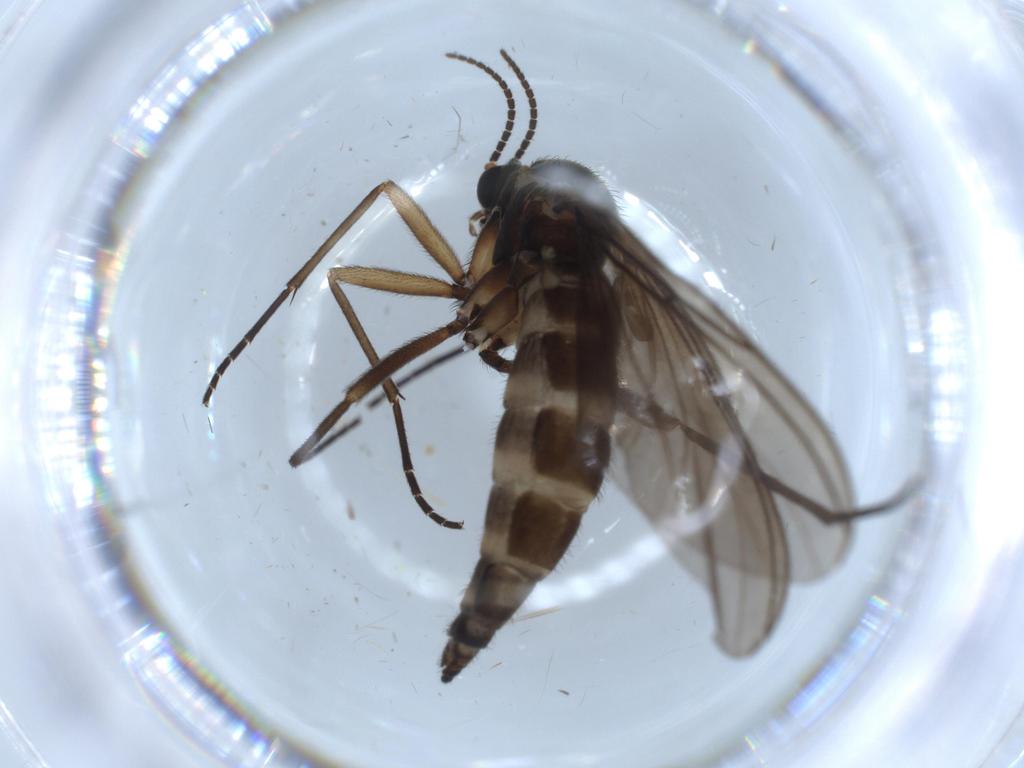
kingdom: Animalia
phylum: Arthropoda
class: Insecta
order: Diptera
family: Sciaridae
